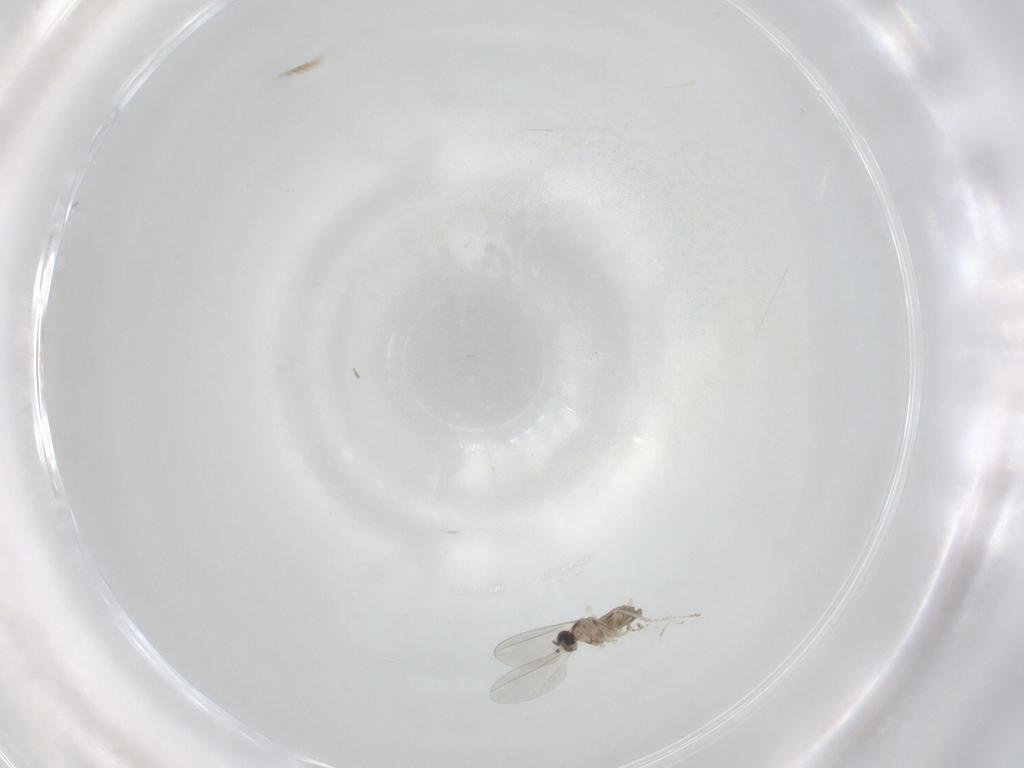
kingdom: Animalia
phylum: Arthropoda
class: Insecta
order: Diptera
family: Cecidomyiidae
